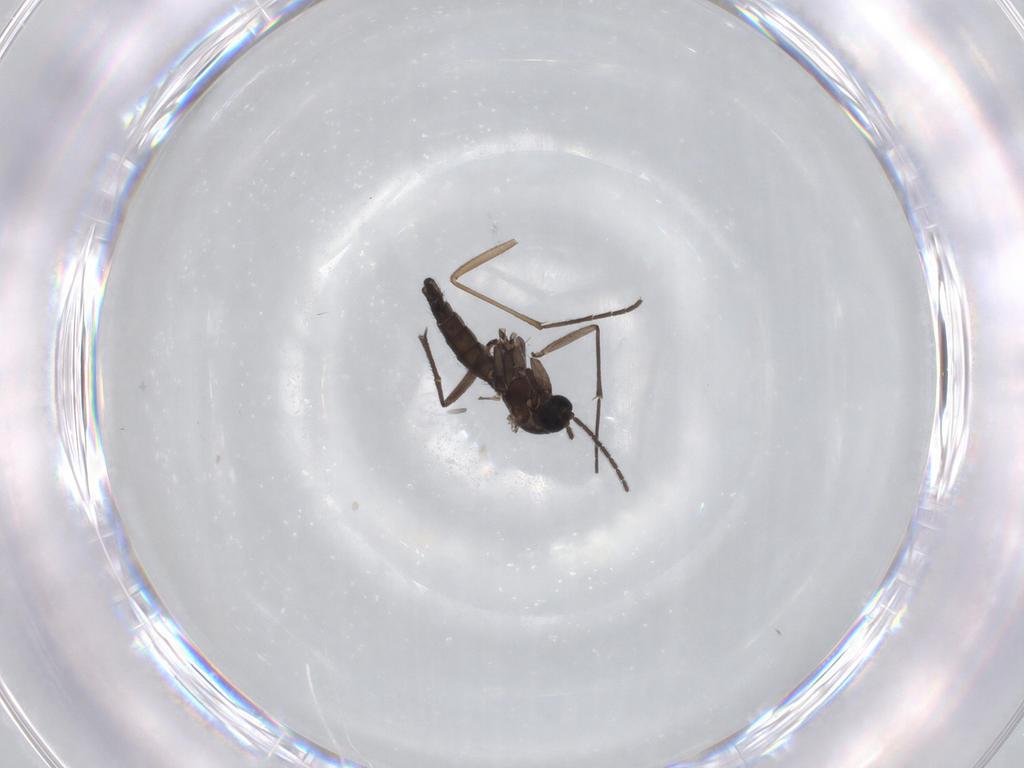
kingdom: Animalia
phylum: Arthropoda
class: Insecta
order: Diptera
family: Sciaridae
